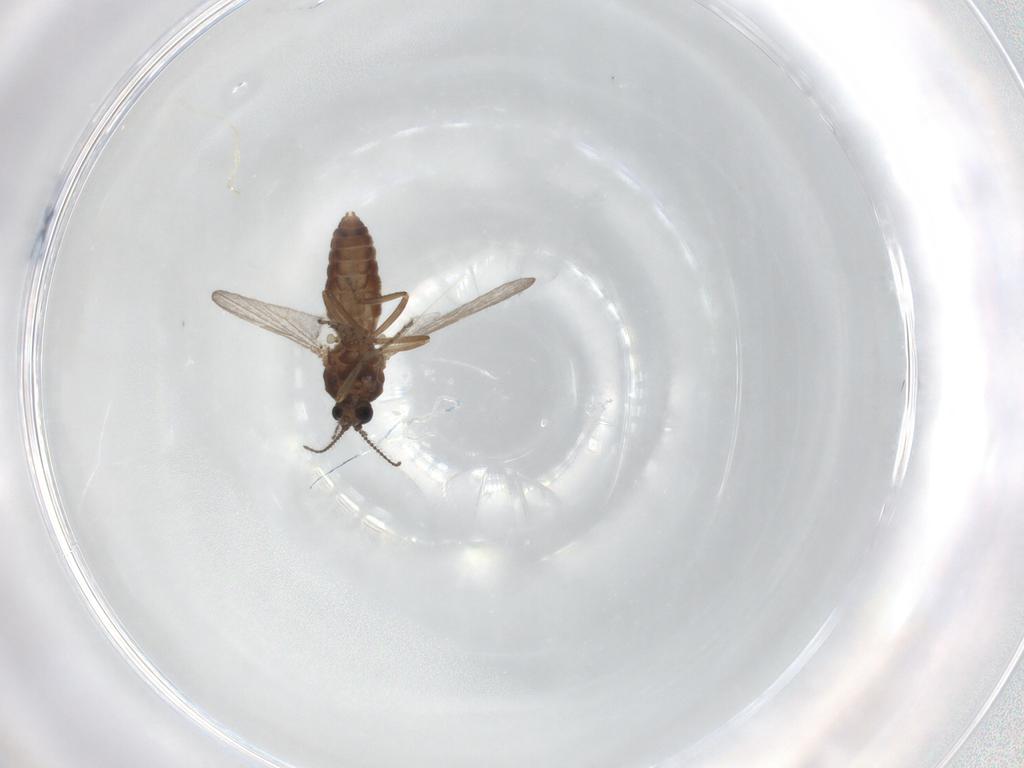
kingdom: Animalia
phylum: Arthropoda
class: Insecta
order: Diptera
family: Ceratopogonidae
